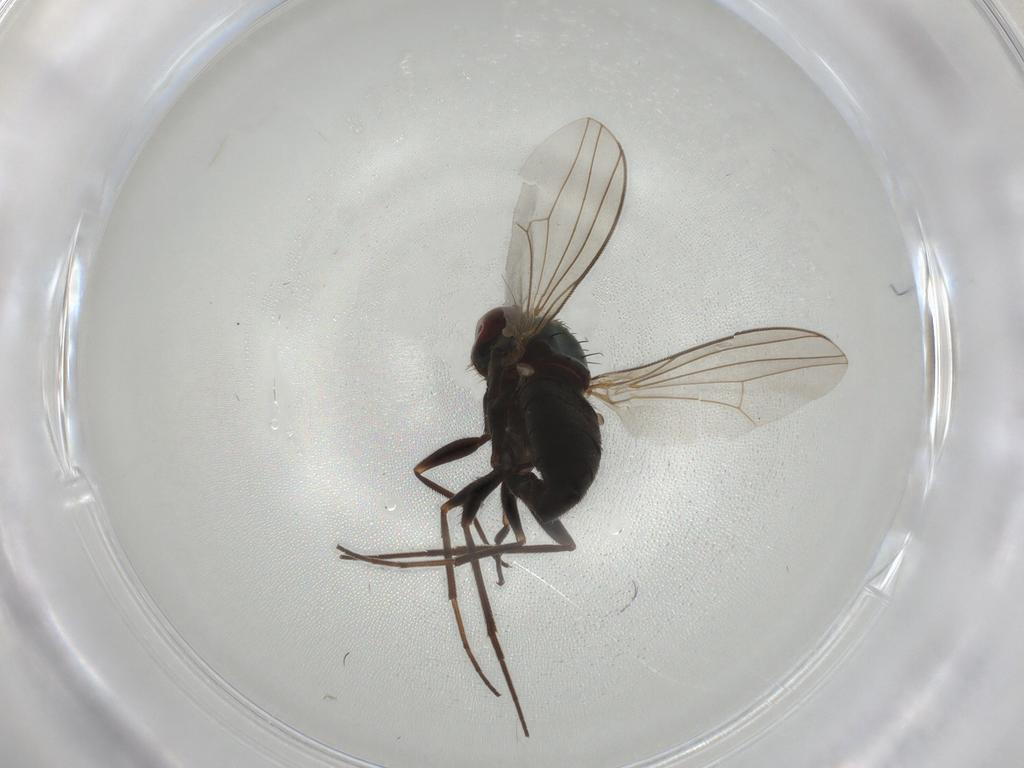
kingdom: Animalia
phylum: Arthropoda
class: Insecta
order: Diptera
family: Dolichopodidae
